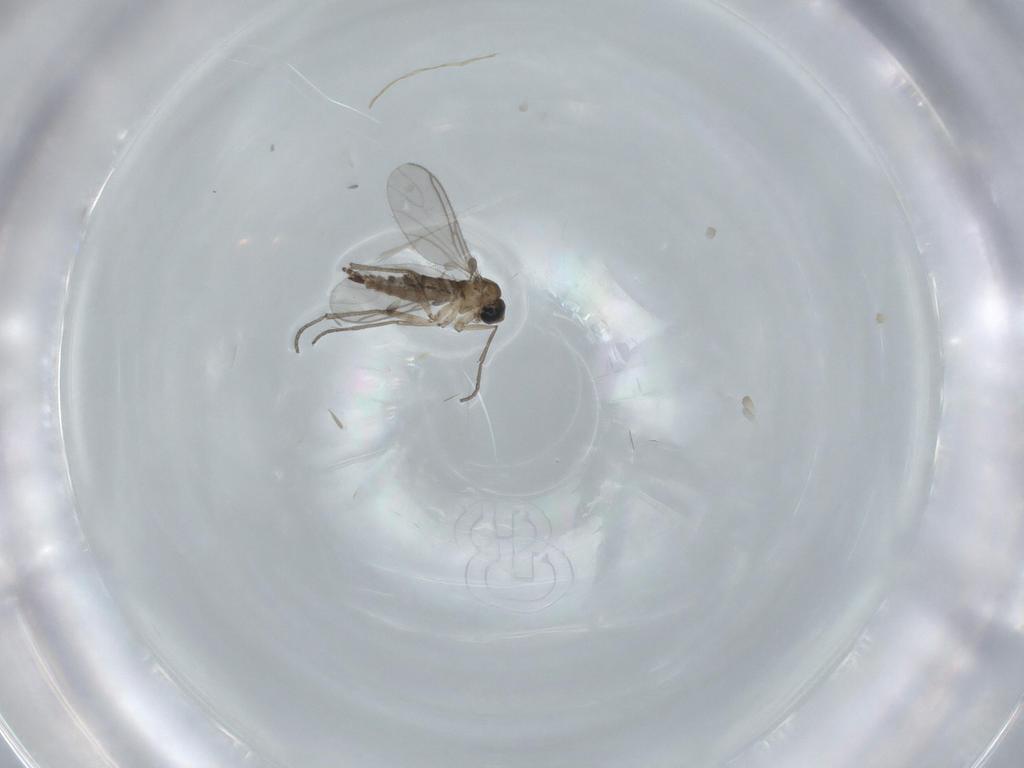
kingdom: Animalia
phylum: Arthropoda
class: Insecta
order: Diptera
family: Sciaridae
